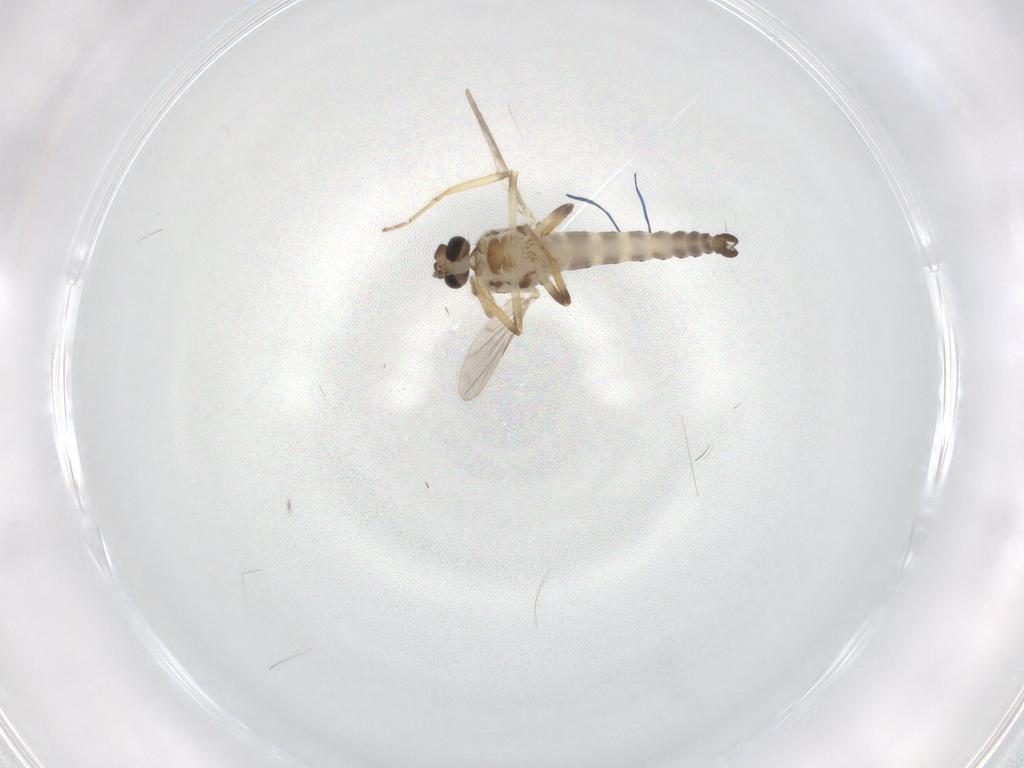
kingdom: Animalia
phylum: Arthropoda
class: Insecta
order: Diptera
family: Ceratopogonidae
